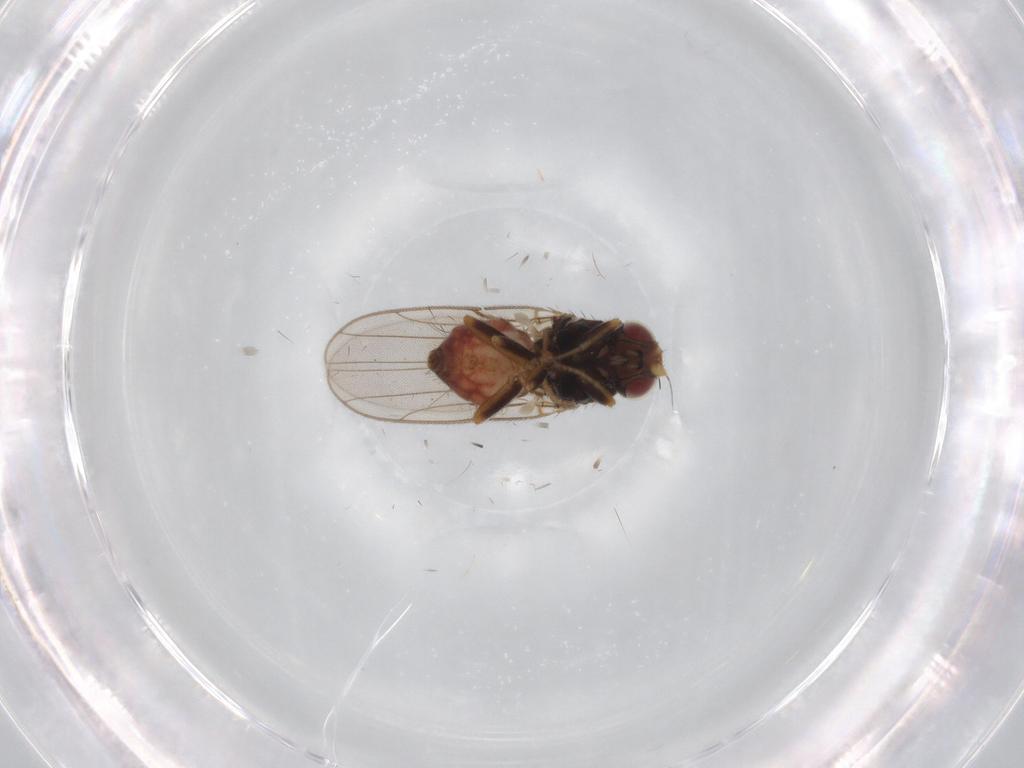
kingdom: Animalia
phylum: Arthropoda
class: Insecta
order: Diptera
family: Chloropidae
